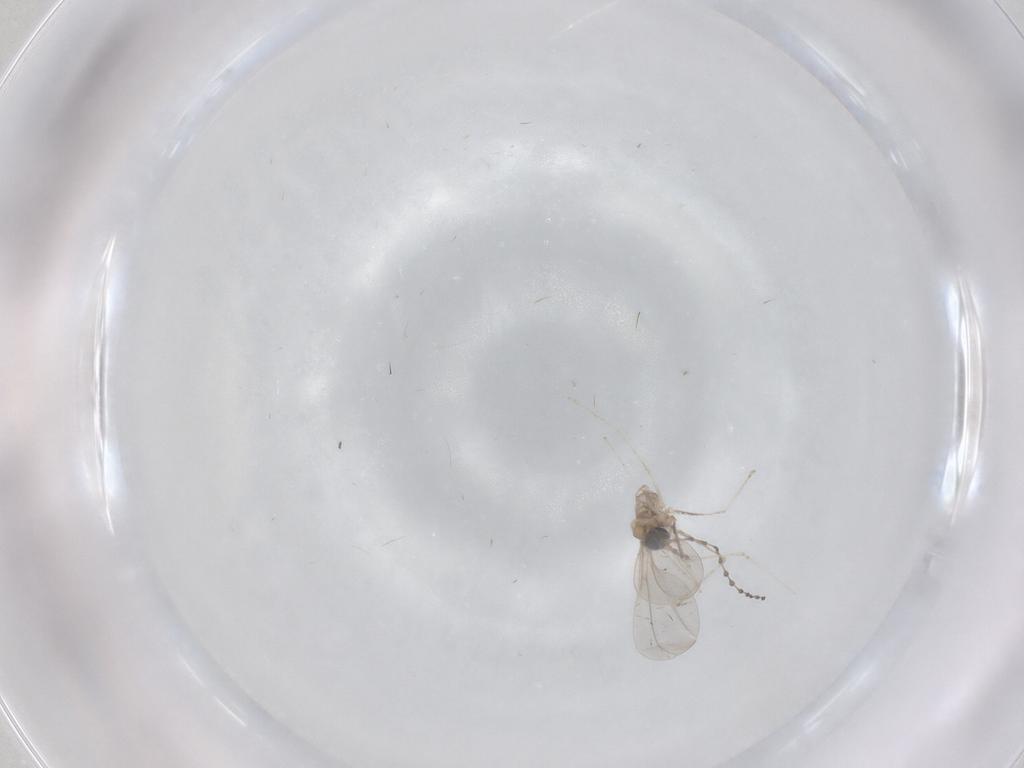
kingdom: Animalia
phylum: Arthropoda
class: Insecta
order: Diptera
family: Cecidomyiidae
